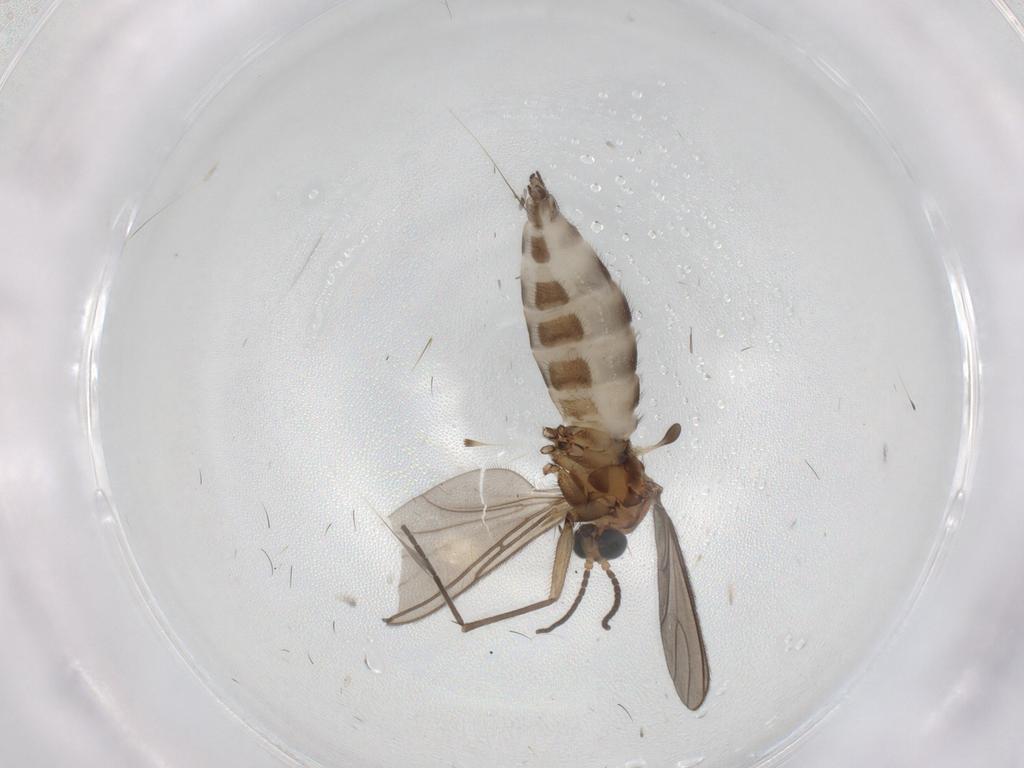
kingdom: Animalia
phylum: Arthropoda
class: Insecta
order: Diptera
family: Sciaridae
